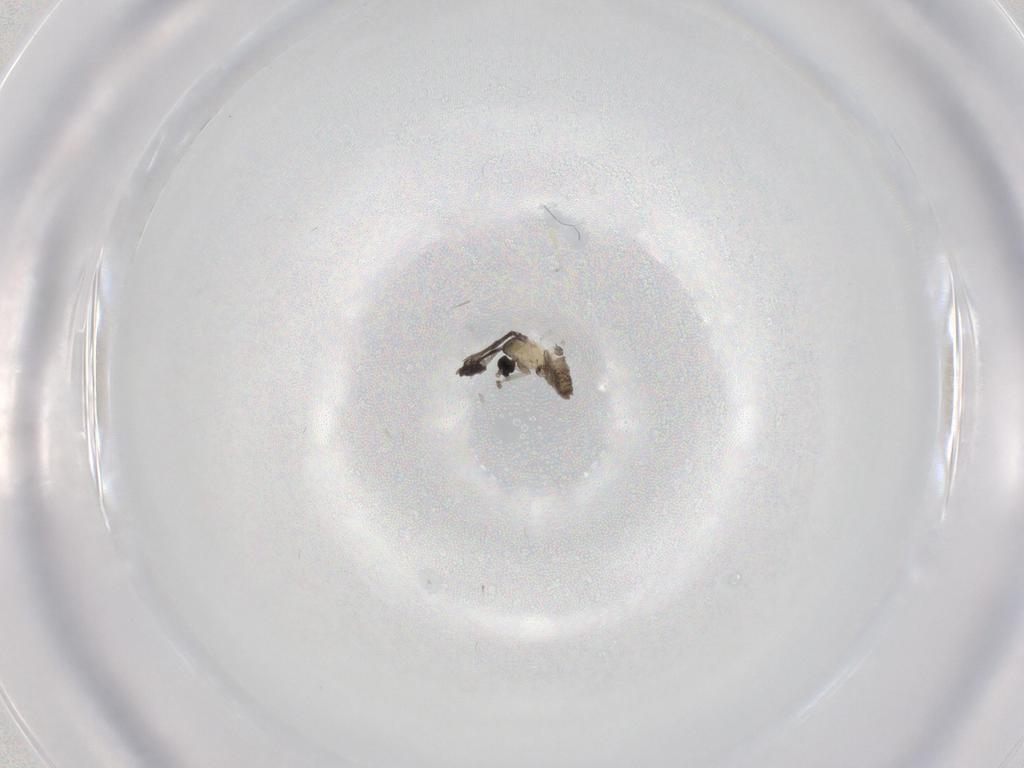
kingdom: Animalia
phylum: Arthropoda
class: Insecta
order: Diptera
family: Cecidomyiidae
